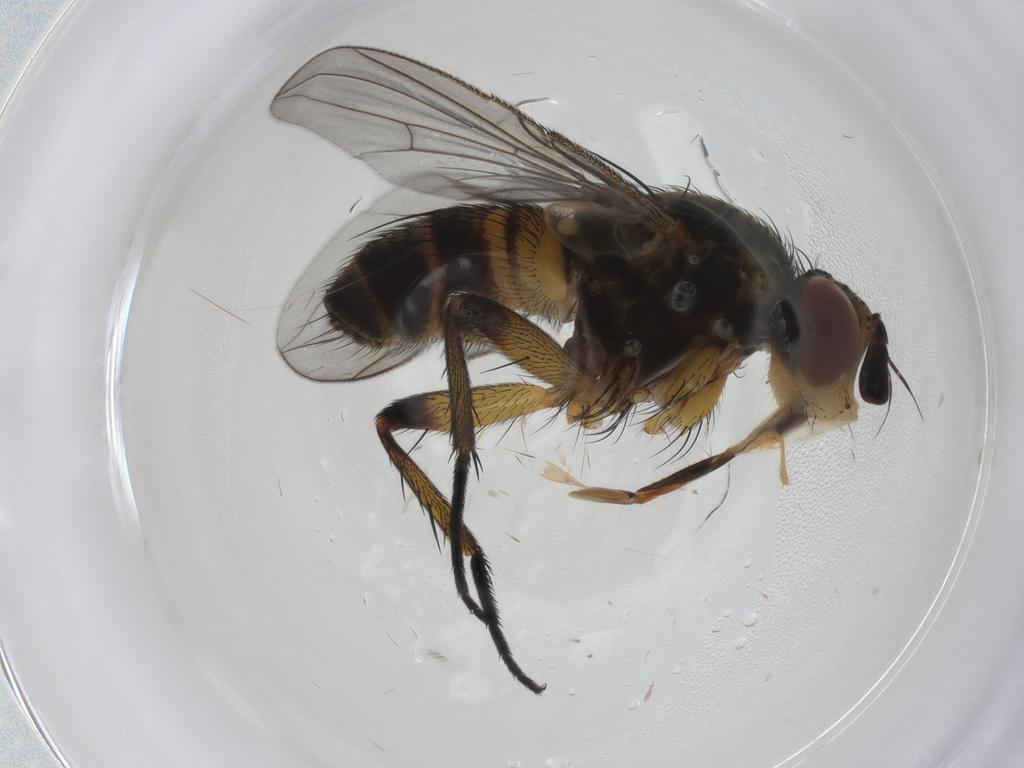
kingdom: Animalia
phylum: Arthropoda
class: Insecta
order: Diptera
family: Tachinidae
